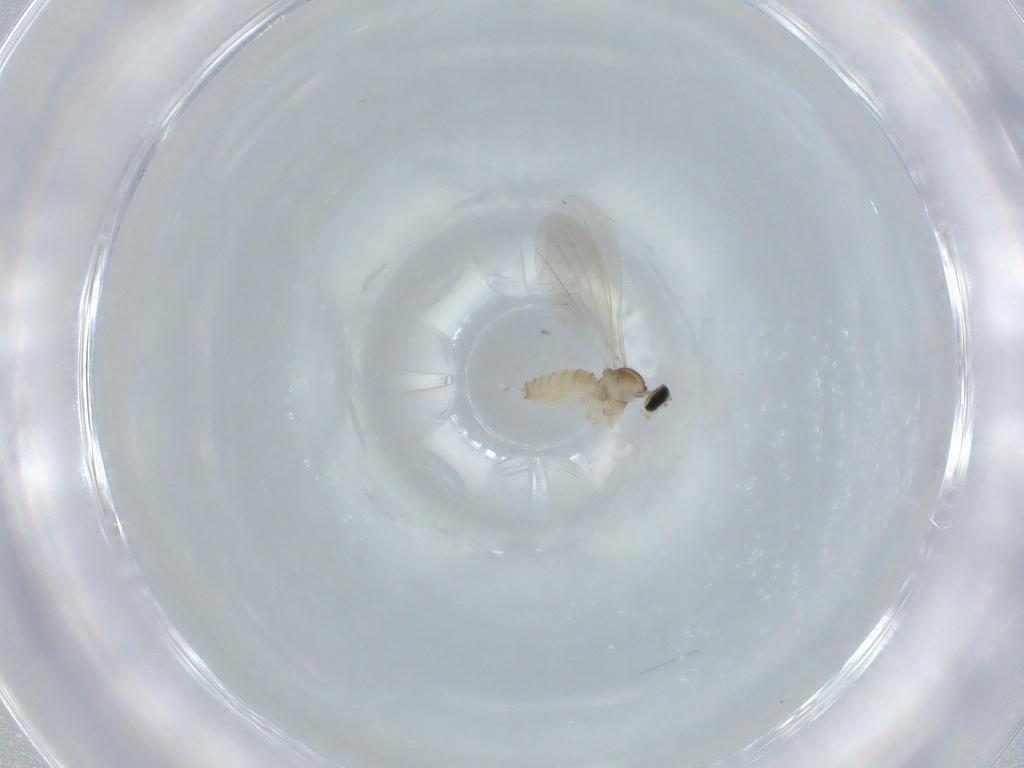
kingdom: Animalia
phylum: Arthropoda
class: Insecta
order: Diptera
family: Cecidomyiidae
